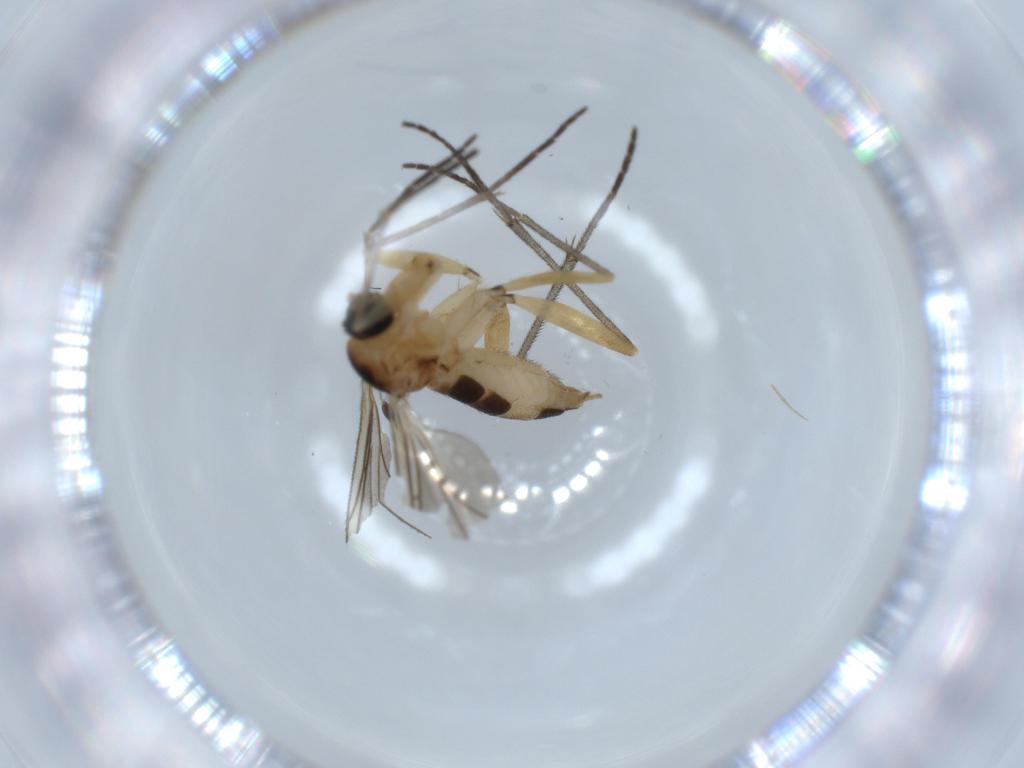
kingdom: Animalia
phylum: Arthropoda
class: Insecta
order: Diptera
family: Sciaridae
